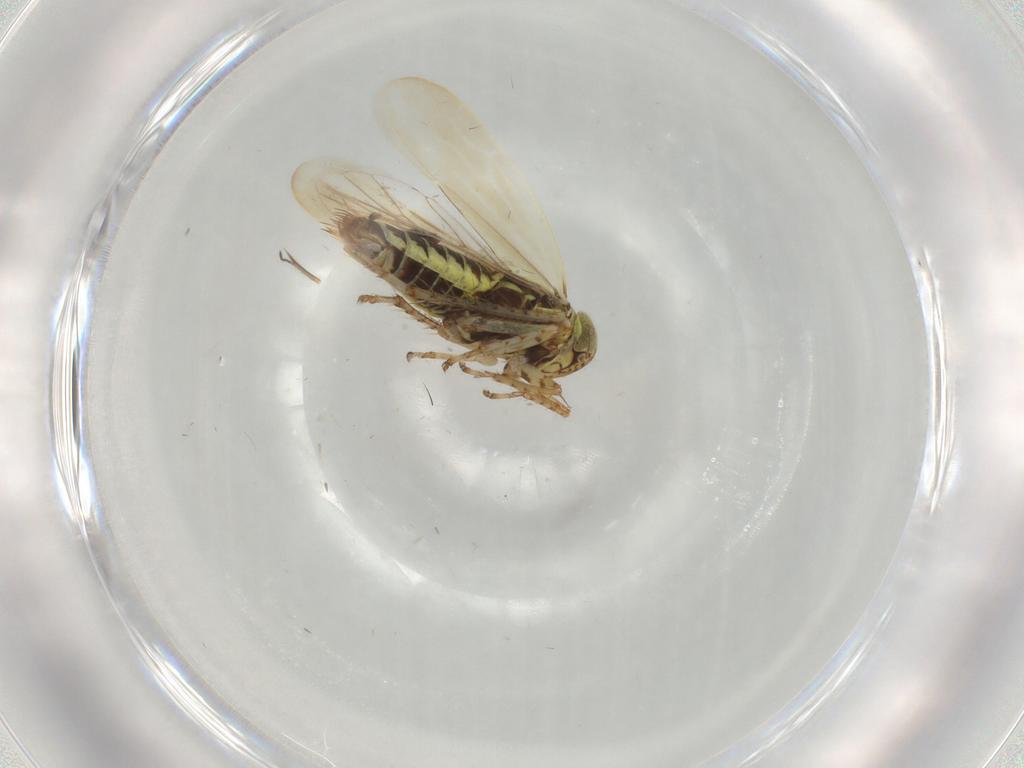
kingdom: Animalia
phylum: Arthropoda
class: Insecta
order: Hemiptera
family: Cicadellidae
